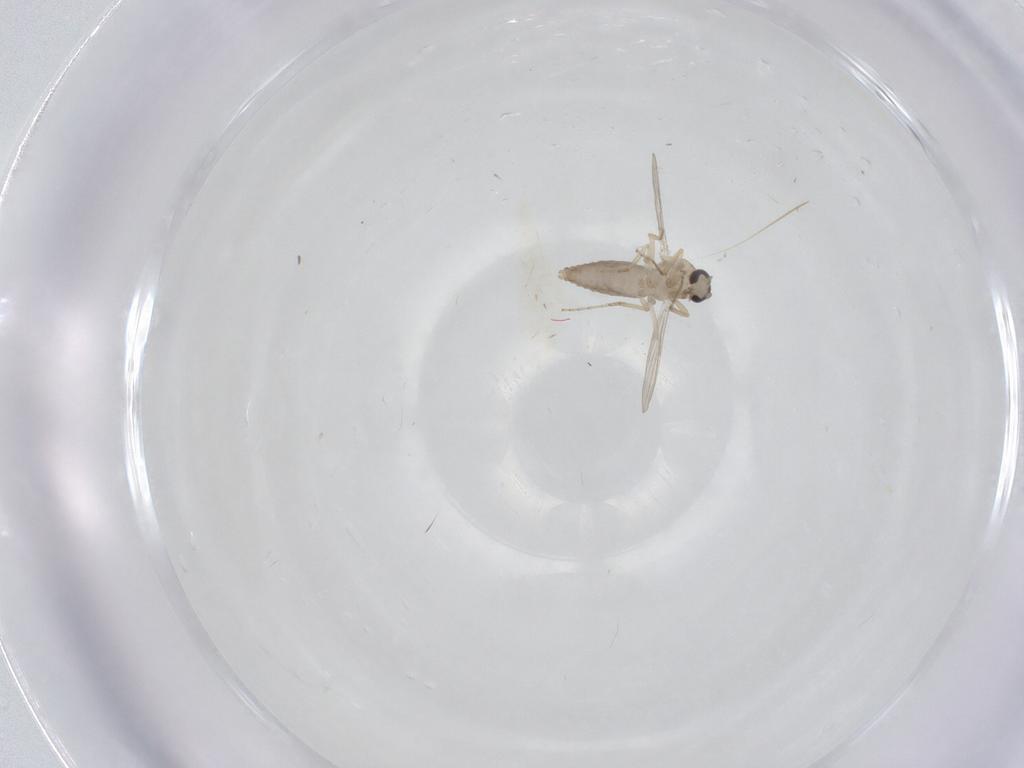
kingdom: Animalia
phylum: Arthropoda
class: Insecta
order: Diptera
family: Ceratopogonidae
